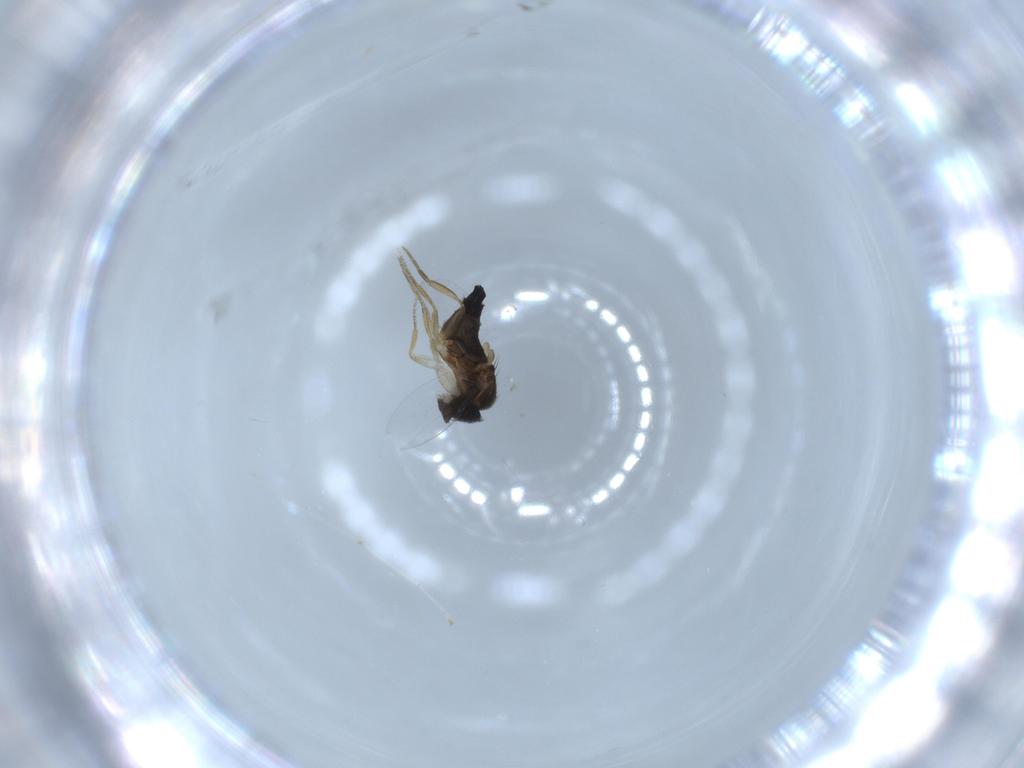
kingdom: Animalia
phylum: Arthropoda
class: Insecta
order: Diptera
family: Phoridae
